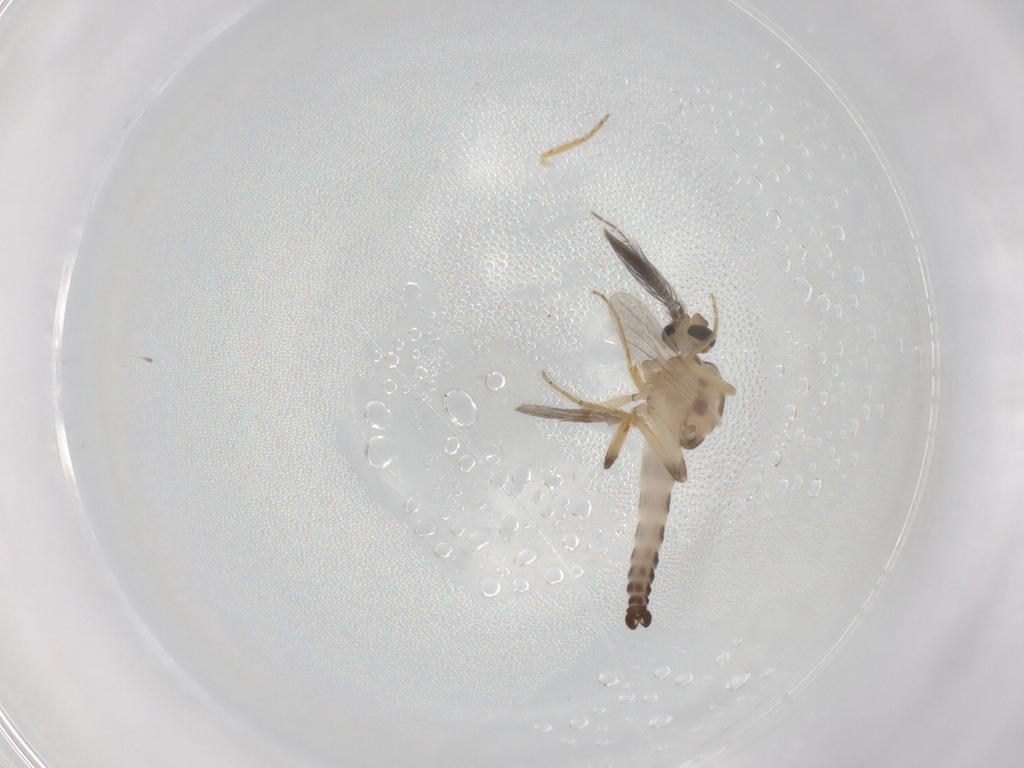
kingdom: Animalia
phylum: Arthropoda
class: Insecta
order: Diptera
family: Ceratopogonidae
